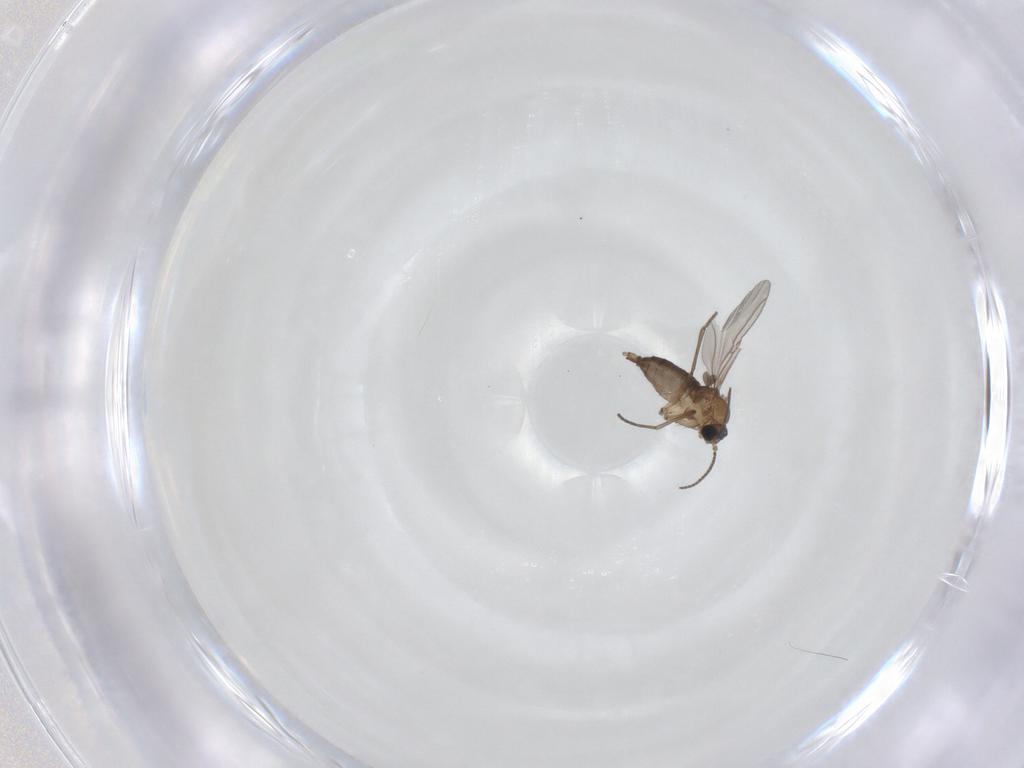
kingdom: Animalia
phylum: Arthropoda
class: Insecta
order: Diptera
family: Sciaridae
